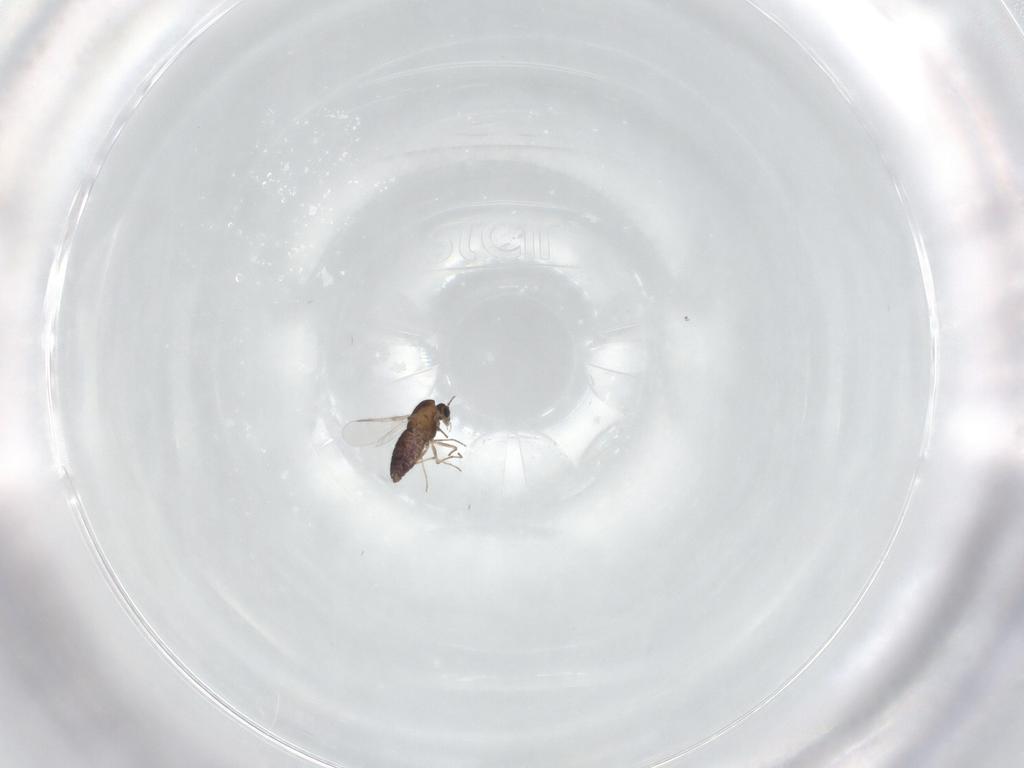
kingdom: Animalia
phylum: Arthropoda
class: Insecta
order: Diptera
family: Chironomidae
